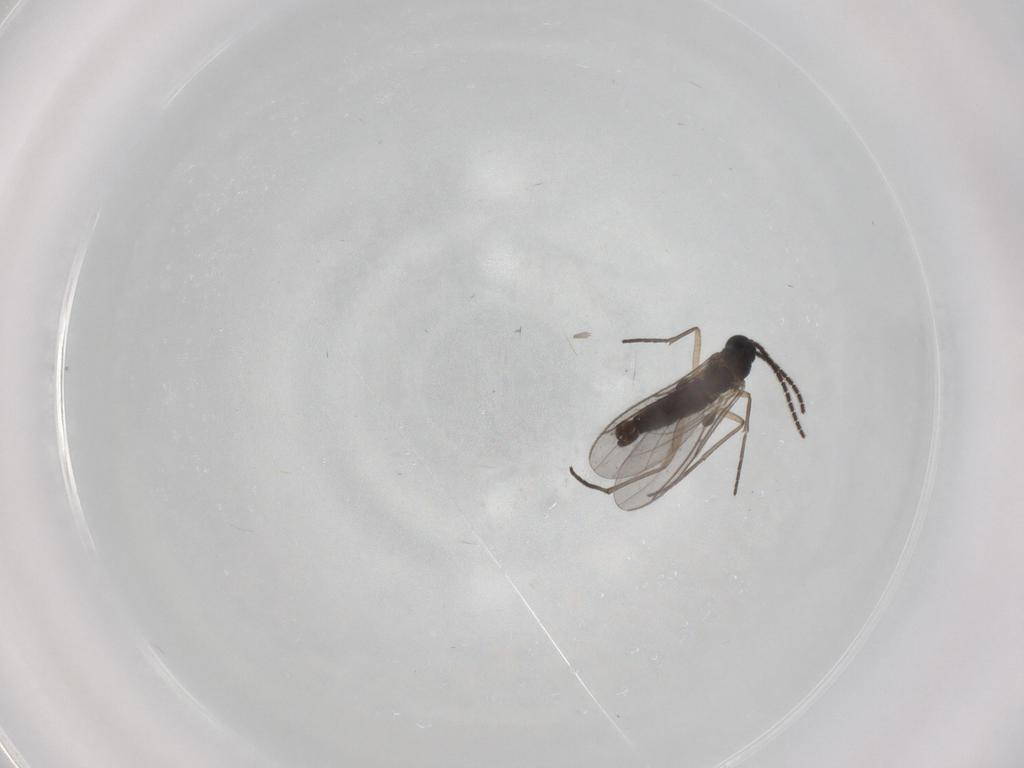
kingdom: Animalia
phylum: Arthropoda
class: Insecta
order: Diptera
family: Sciaridae
